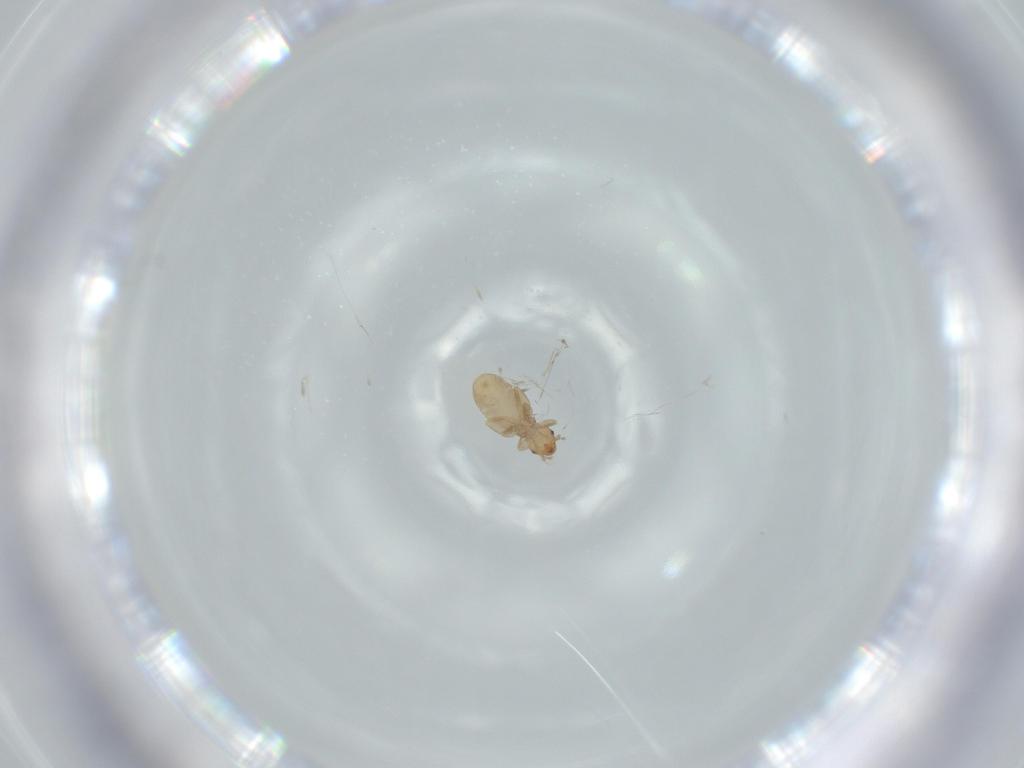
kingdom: Animalia
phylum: Arthropoda
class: Insecta
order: Psocodea
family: Liposcelididae
